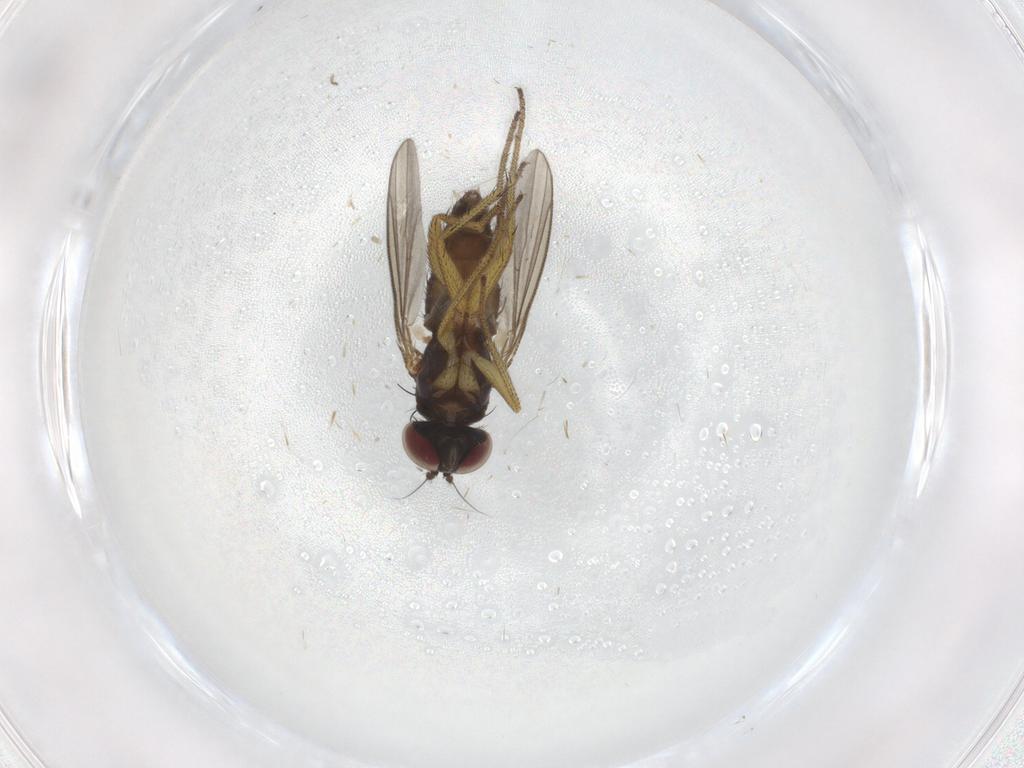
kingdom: Animalia
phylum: Arthropoda
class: Insecta
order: Diptera
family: Dolichopodidae
